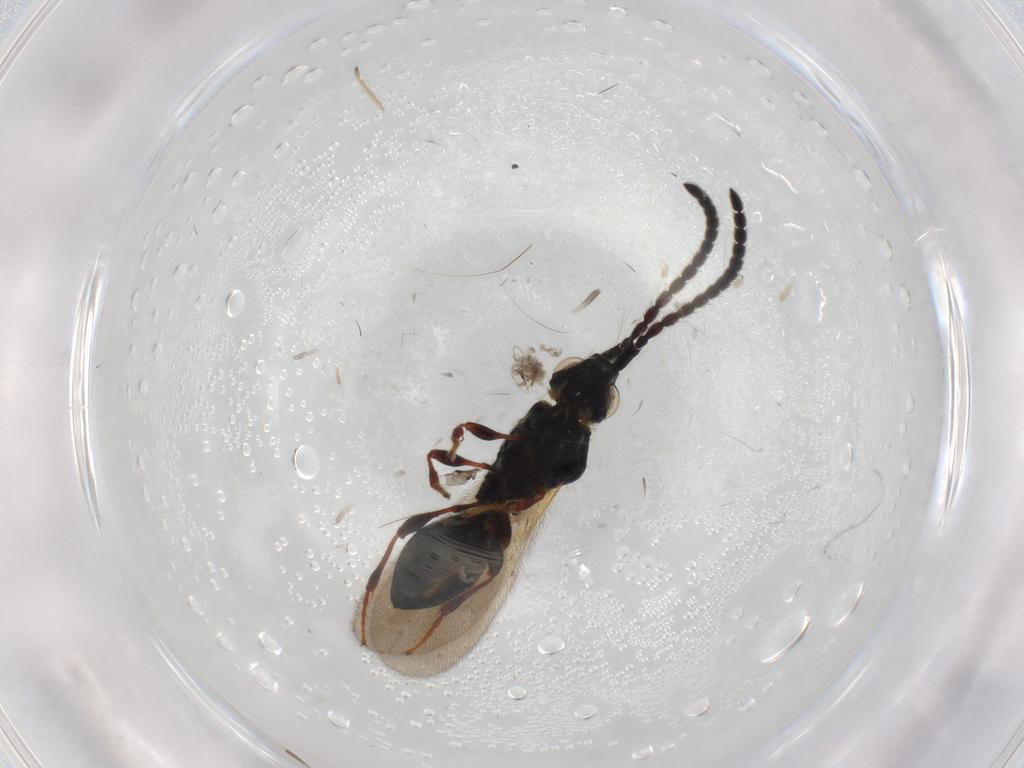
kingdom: Animalia
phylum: Arthropoda
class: Insecta
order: Hymenoptera
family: Diapriidae
